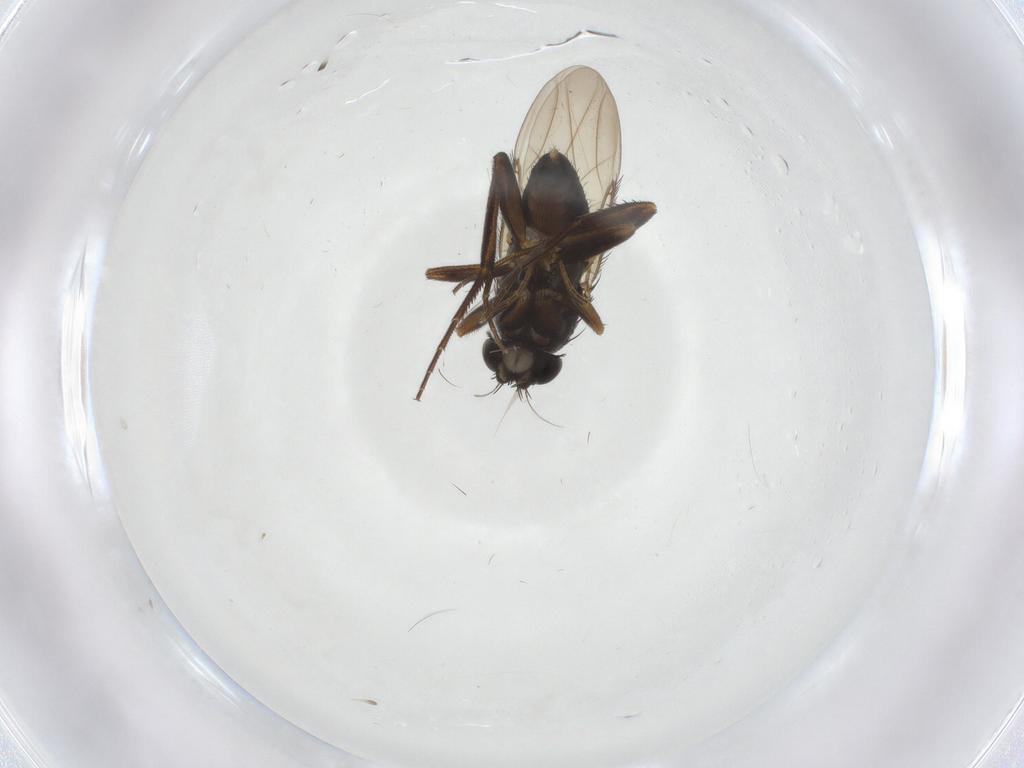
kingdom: Animalia
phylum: Arthropoda
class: Insecta
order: Diptera
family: Phoridae
